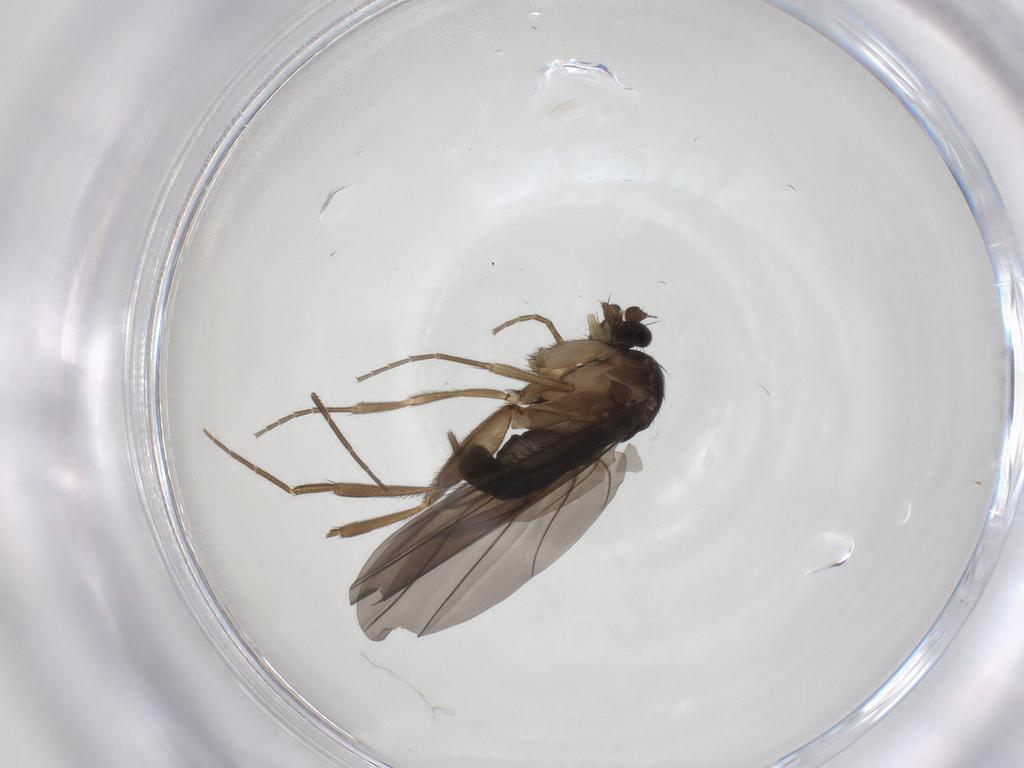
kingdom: Animalia
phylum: Arthropoda
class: Insecta
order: Diptera
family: Phoridae
